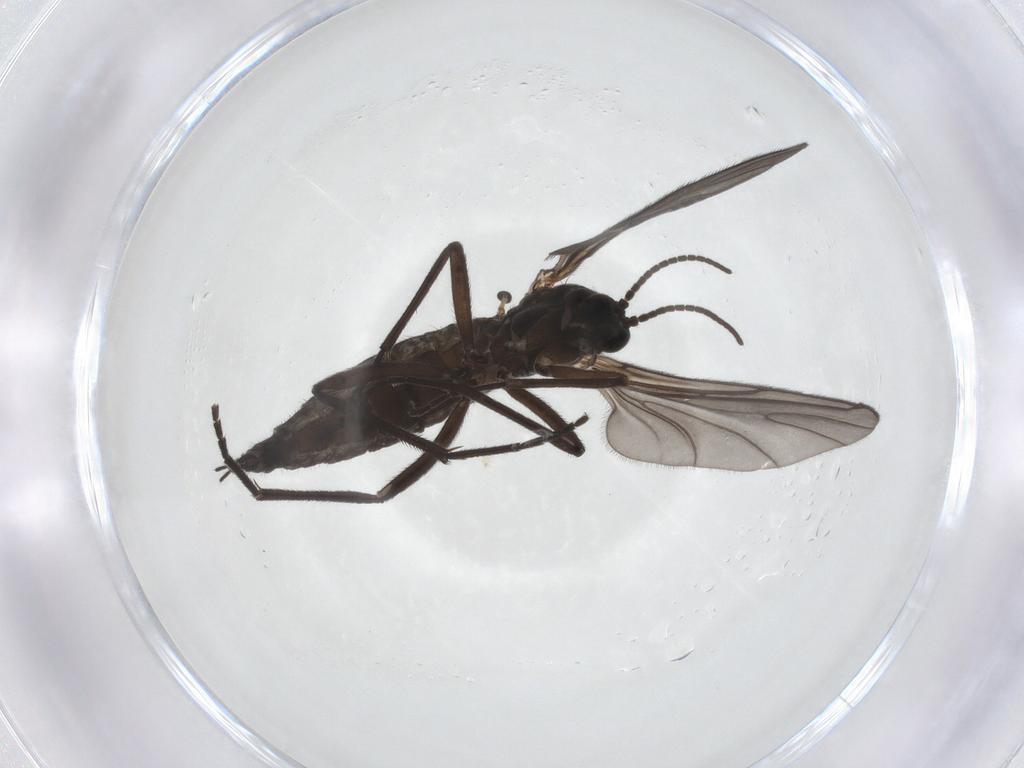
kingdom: Animalia
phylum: Arthropoda
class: Insecta
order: Diptera
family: Sciaridae
